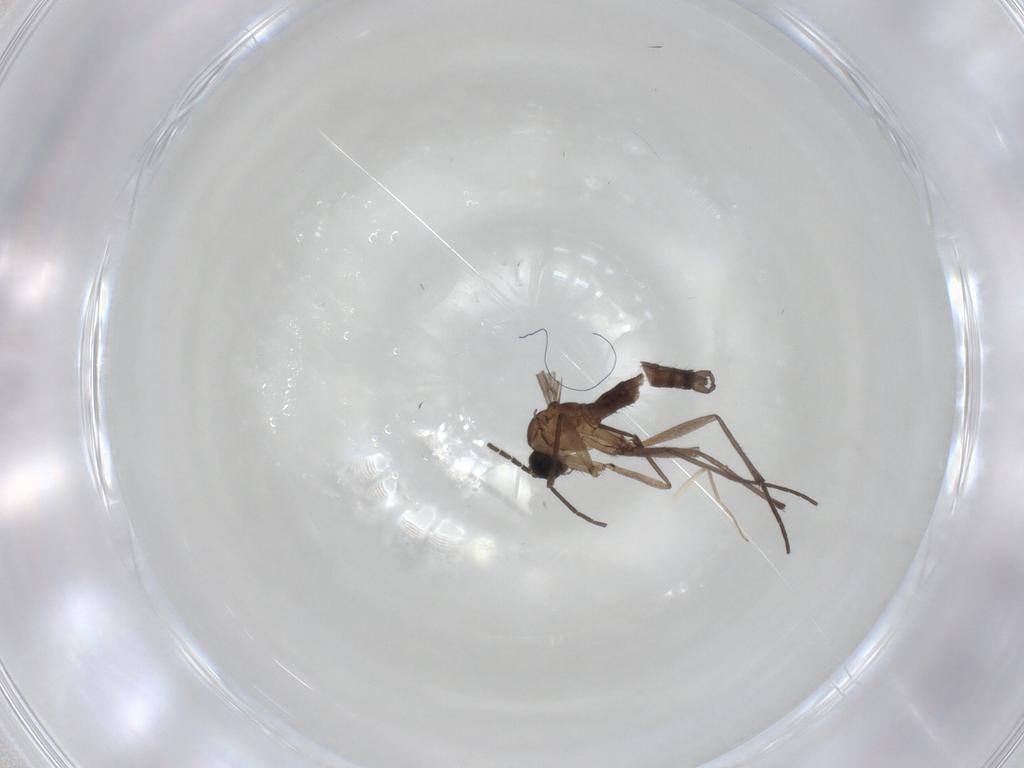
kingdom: Animalia
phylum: Arthropoda
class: Insecta
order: Diptera
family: Sciaridae
